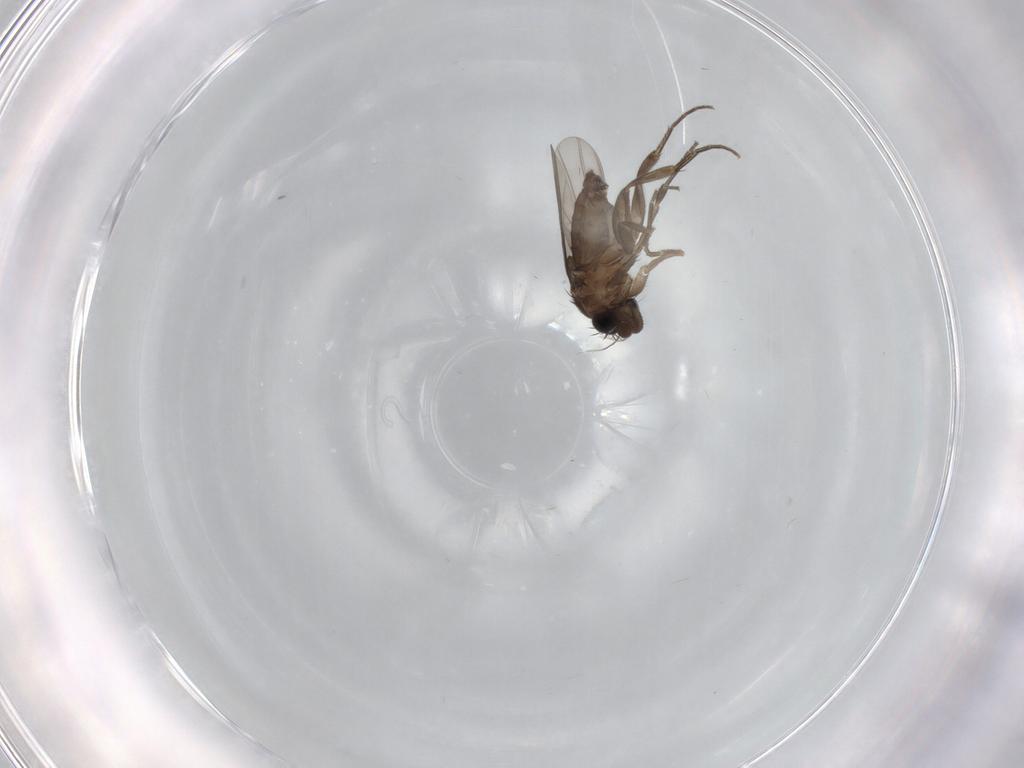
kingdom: Animalia
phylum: Arthropoda
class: Insecta
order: Diptera
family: Phoridae
